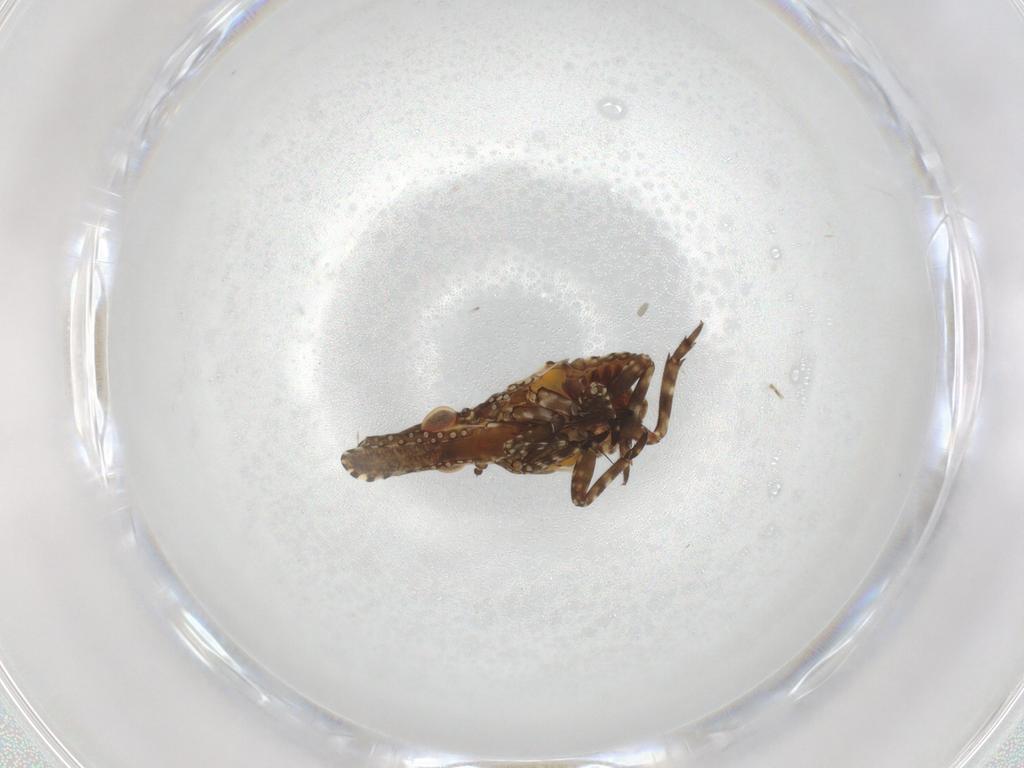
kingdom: Animalia
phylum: Arthropoda
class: Insecta
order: Hemiptera
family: Fulgoridae
